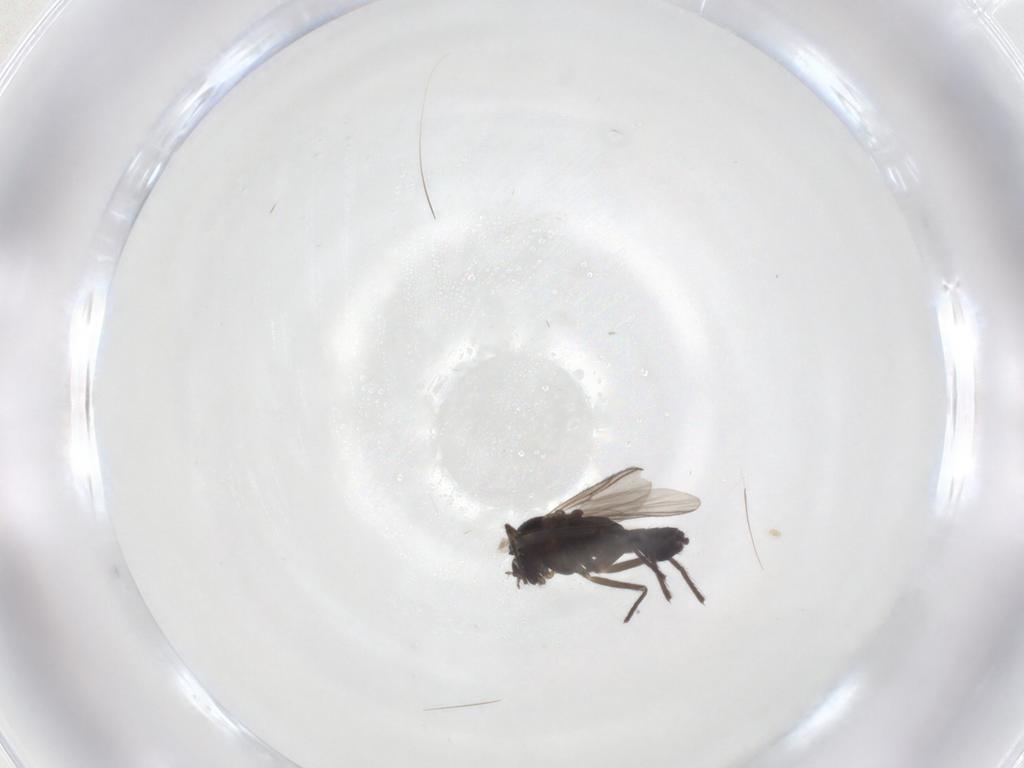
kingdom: Animalia
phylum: Arthropoda
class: Insecta
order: Diptera
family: Chironomidae
